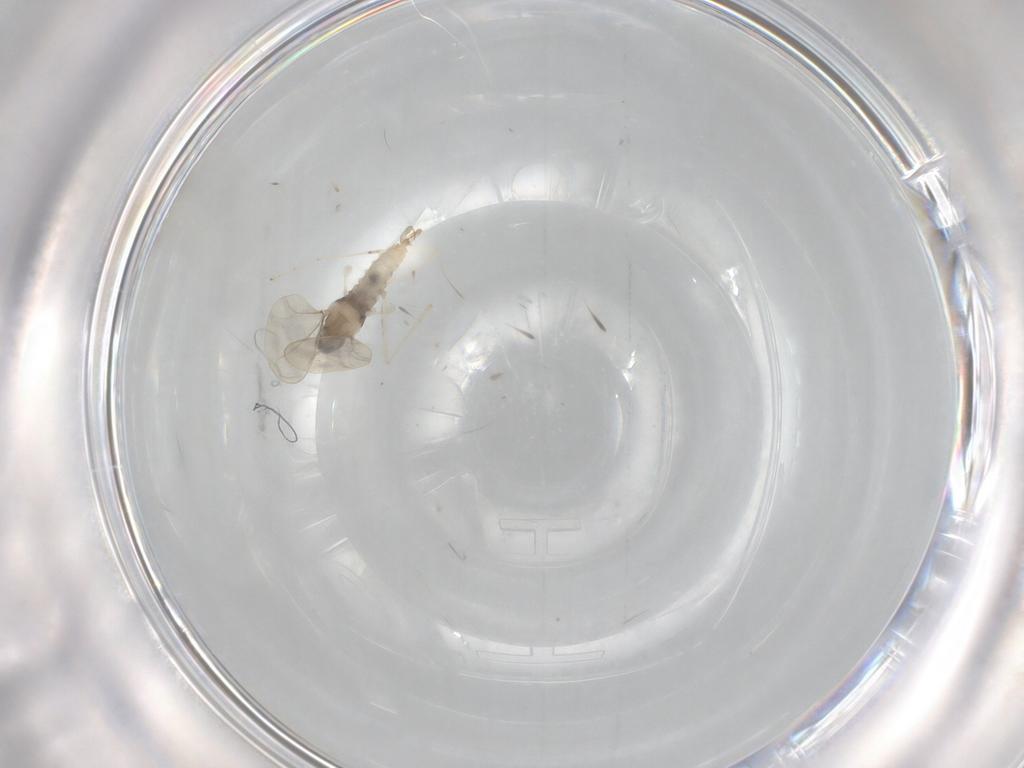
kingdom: Animalia
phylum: Arthropoda
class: Insecta
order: Diptera
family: Cecidomyiidae
